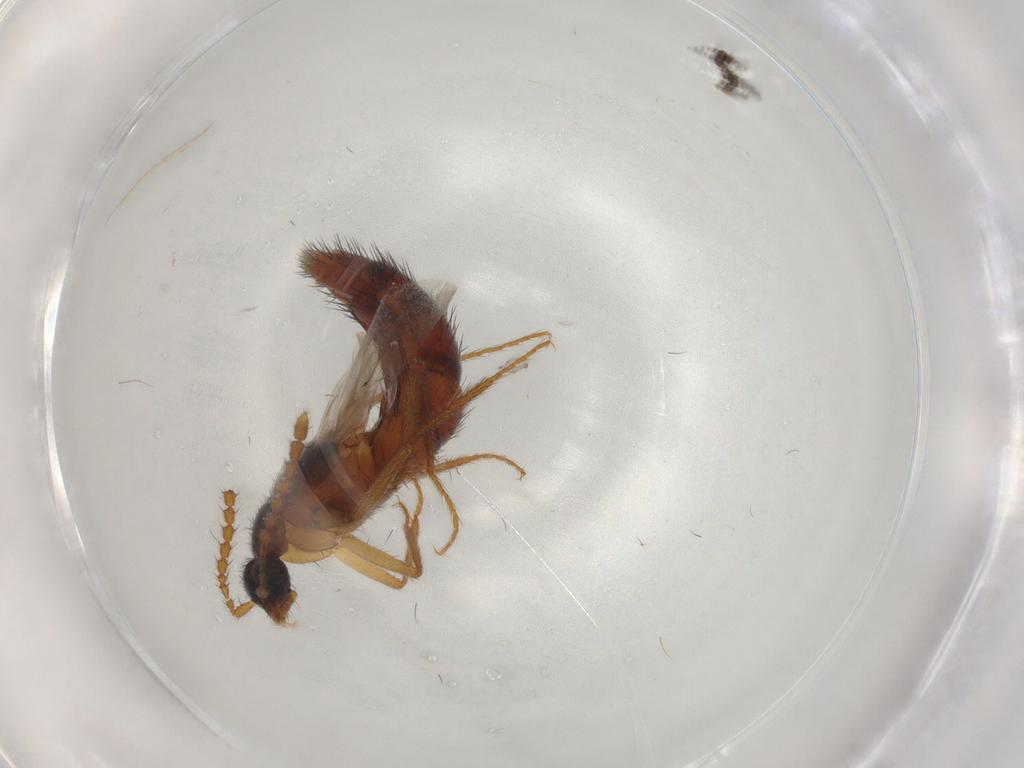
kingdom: Animalia
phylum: Arthropoda
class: Insecta
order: Coleoptera
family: Staphylinidae
